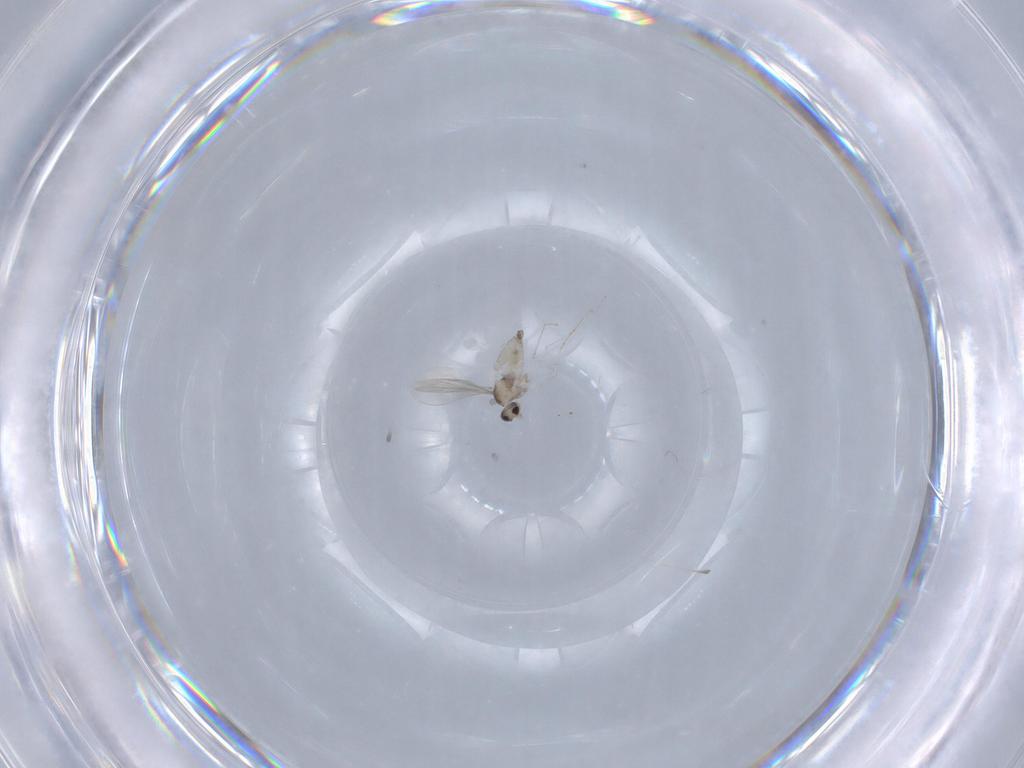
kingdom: Animalia
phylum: Arthropoda
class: Insecta
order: Diptera
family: Cecidomyiidae
